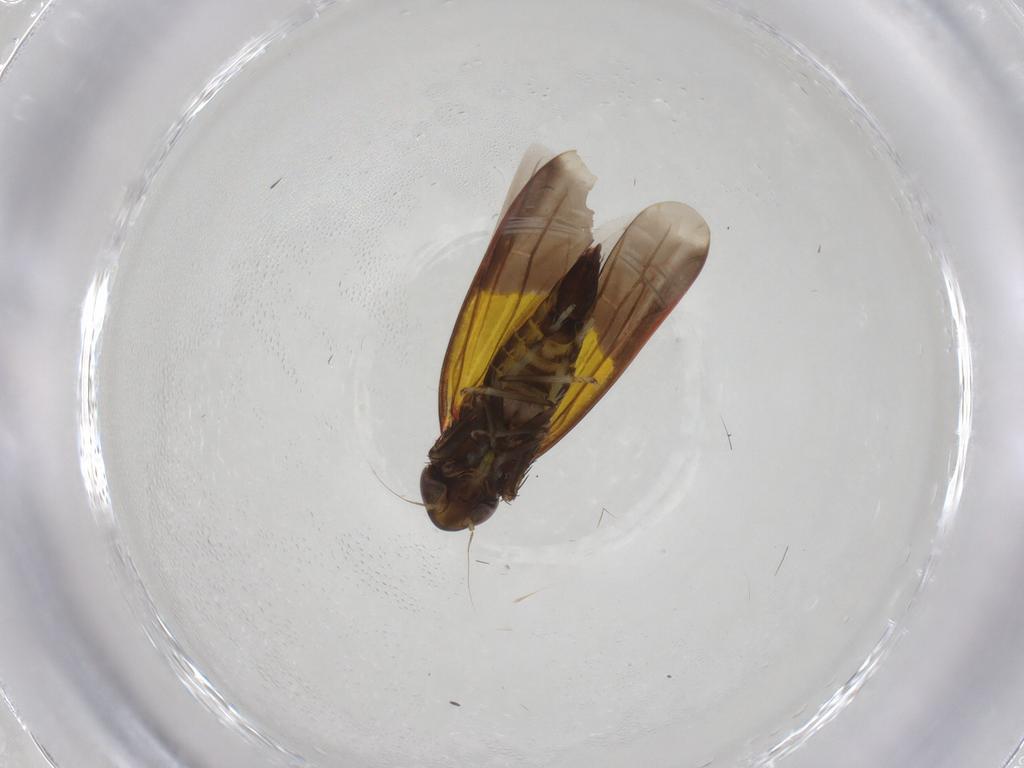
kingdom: Animalia
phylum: Arthropoda
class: Insecta
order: Hemiptera
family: Cicadellidae
